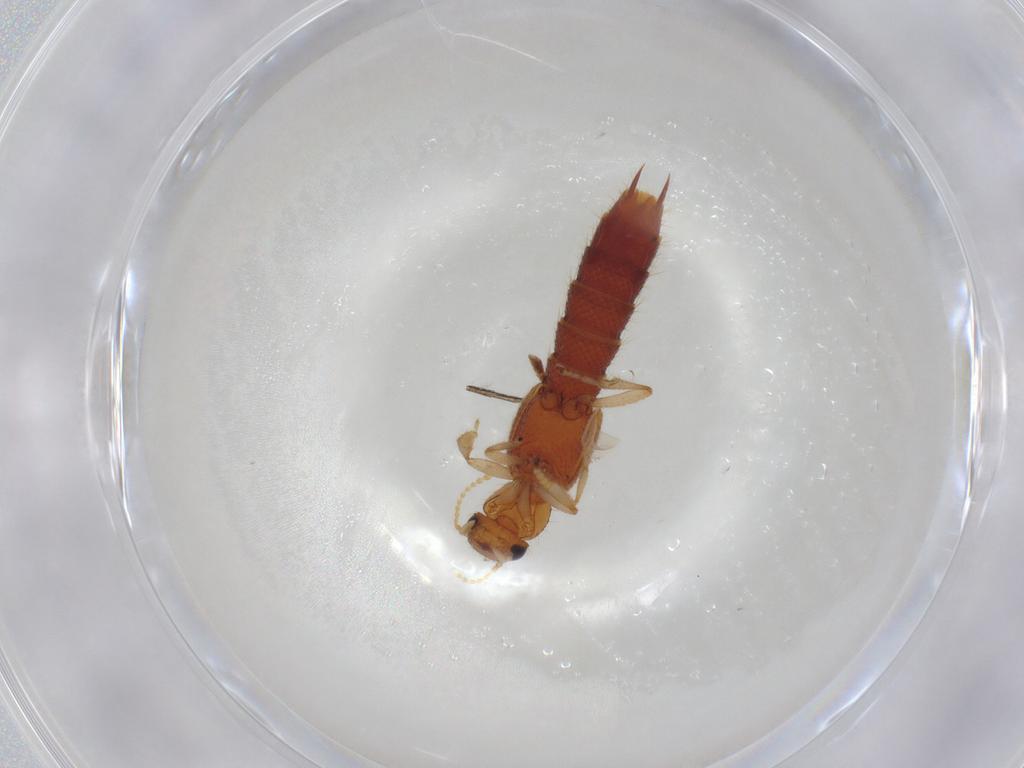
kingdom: Animalia
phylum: Arthropoda
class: Insecta
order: Coleoptera
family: Staphylinidae
